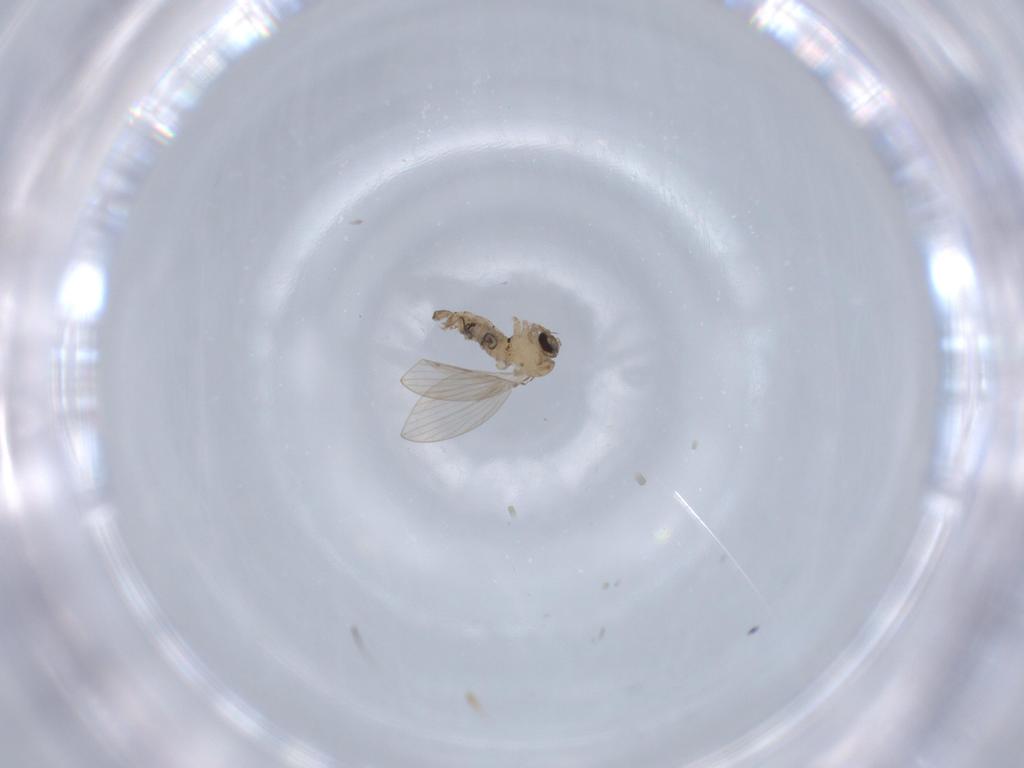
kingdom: Animalia
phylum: Arthropoda
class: Insecta
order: Diptera
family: Psychodidae
